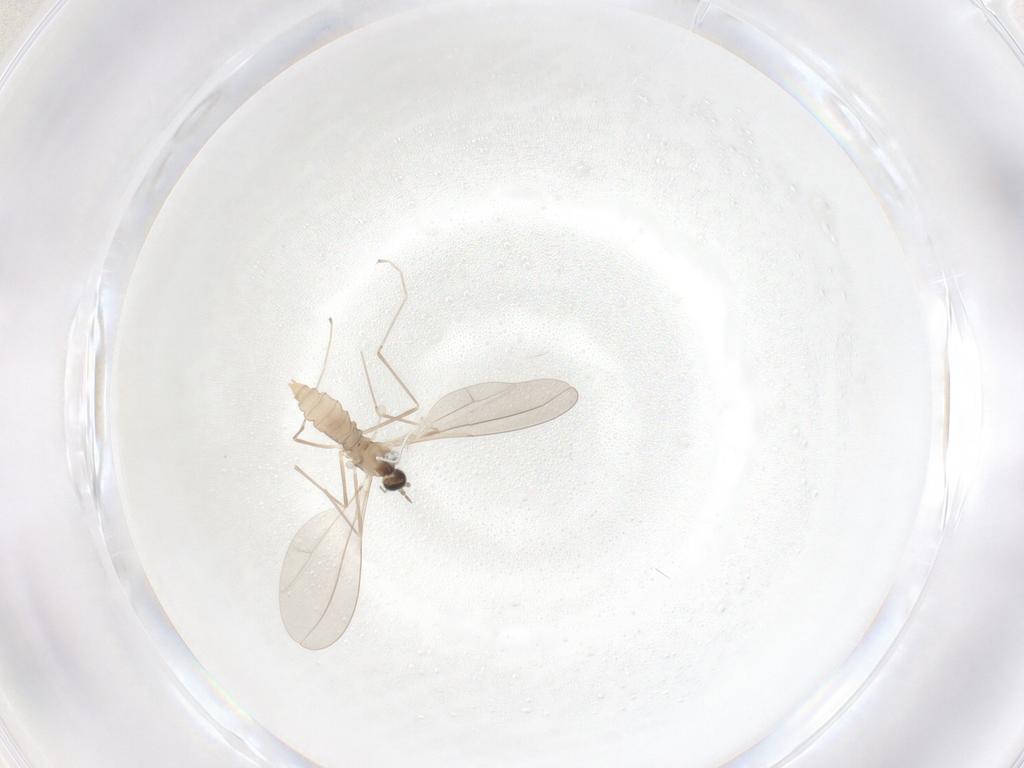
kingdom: Animalia
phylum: Arthropoda
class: Insecta
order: Diptera
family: Cecidomyiidae
